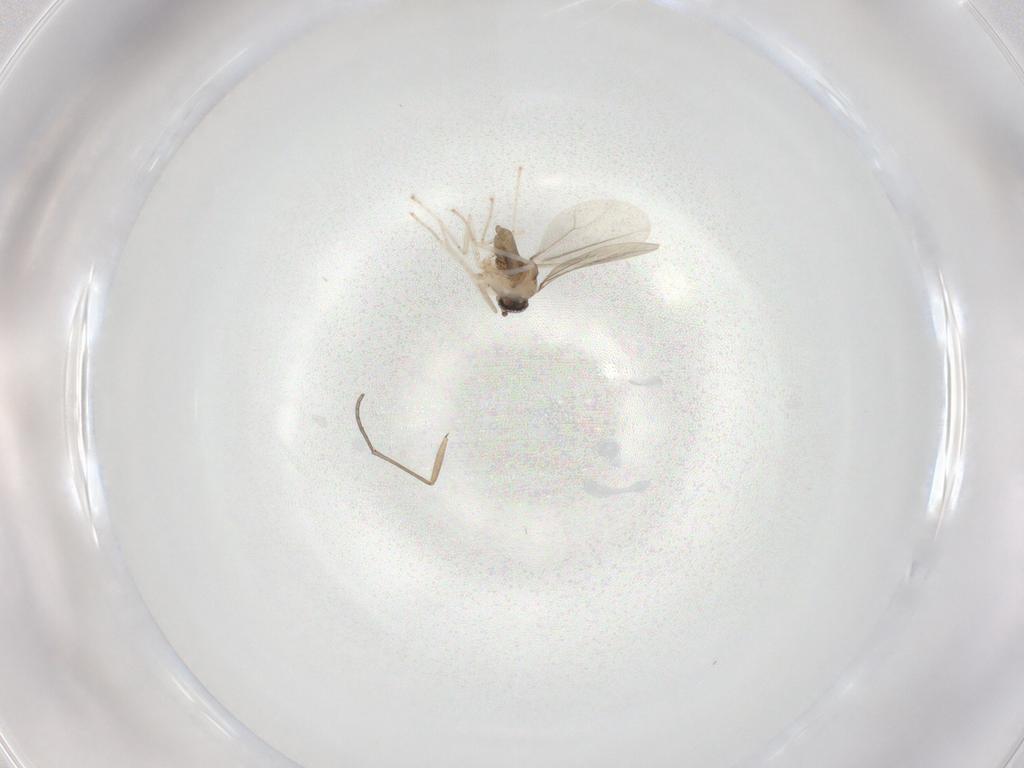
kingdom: Animalia
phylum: Arthropoda
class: Insecta
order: Diptera
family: Cecidomyiidae
